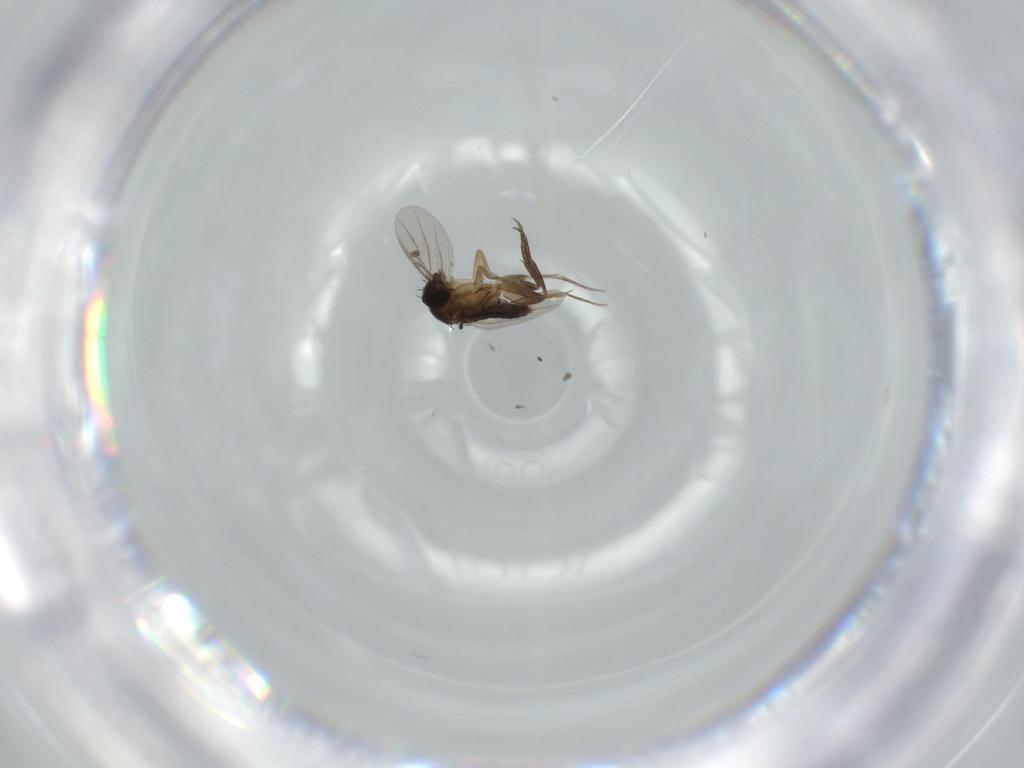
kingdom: Animalia
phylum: Arthropoda
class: Insecta
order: Diptera
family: Phoridae
